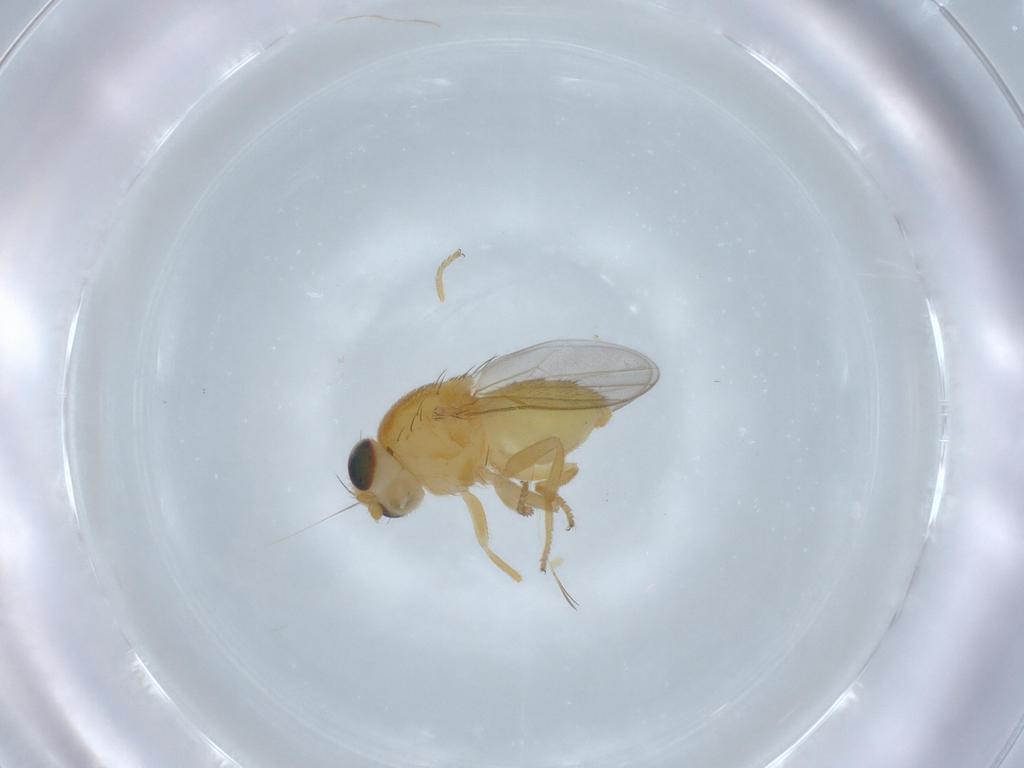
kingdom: Animalia
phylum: Arthropoda
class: Insecta
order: Diptera
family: Chloropidae
